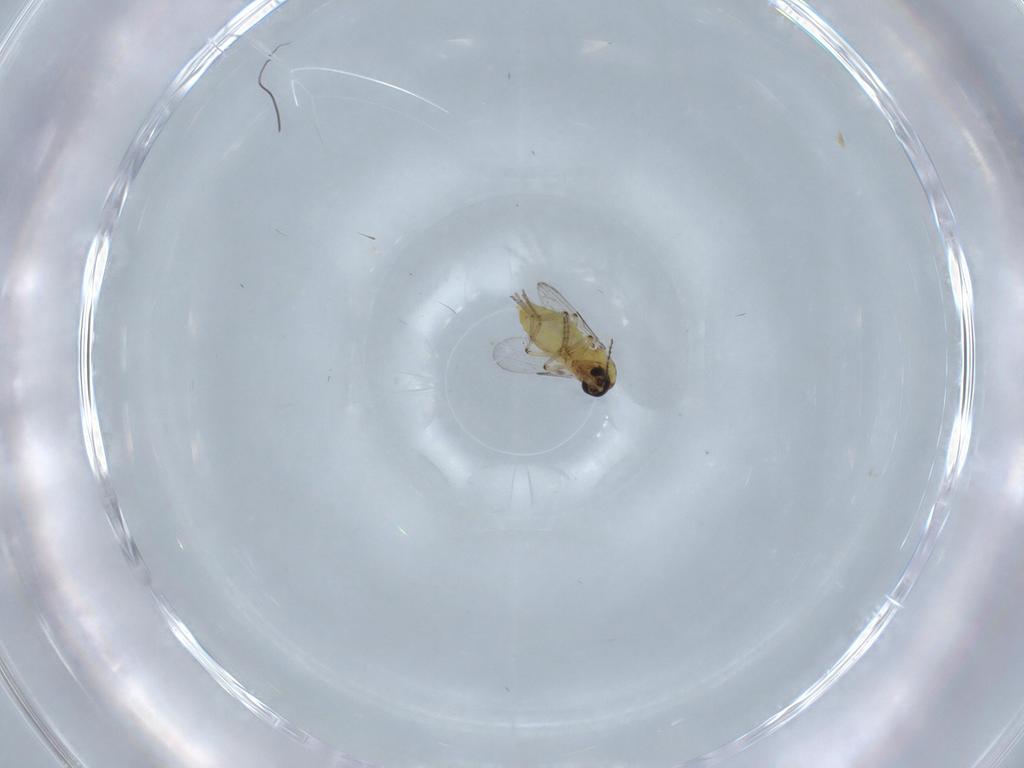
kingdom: Animalia
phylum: Arthropoda
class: Insecta
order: Diptera
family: Ceratopogonidae
